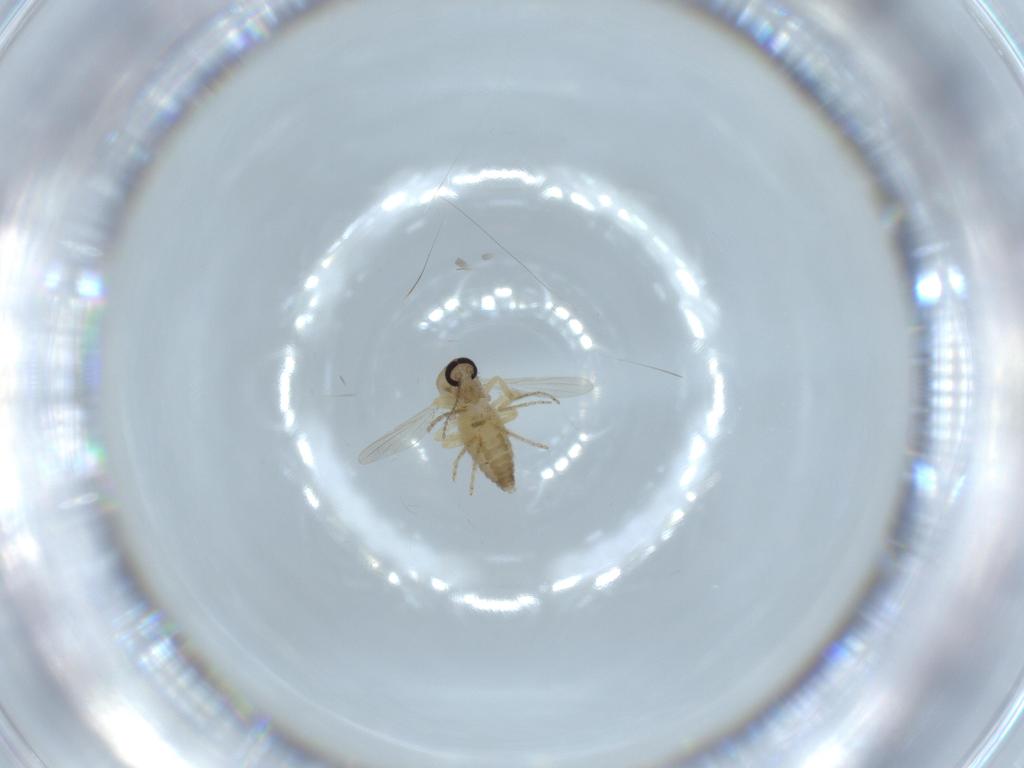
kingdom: Animalia
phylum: Arthropoda
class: Insecta
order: Diptera
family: Ceratopogonidae
